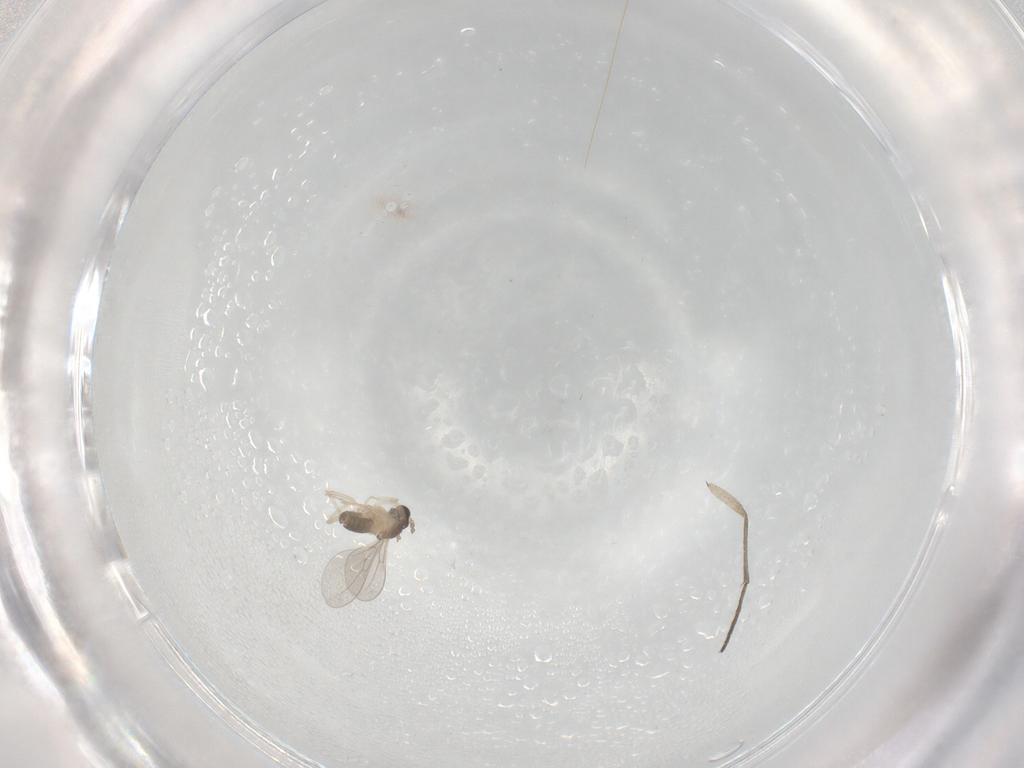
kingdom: Animalia
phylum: Arthropoda
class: Insecta
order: Diptera
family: Cecidomyiidae
